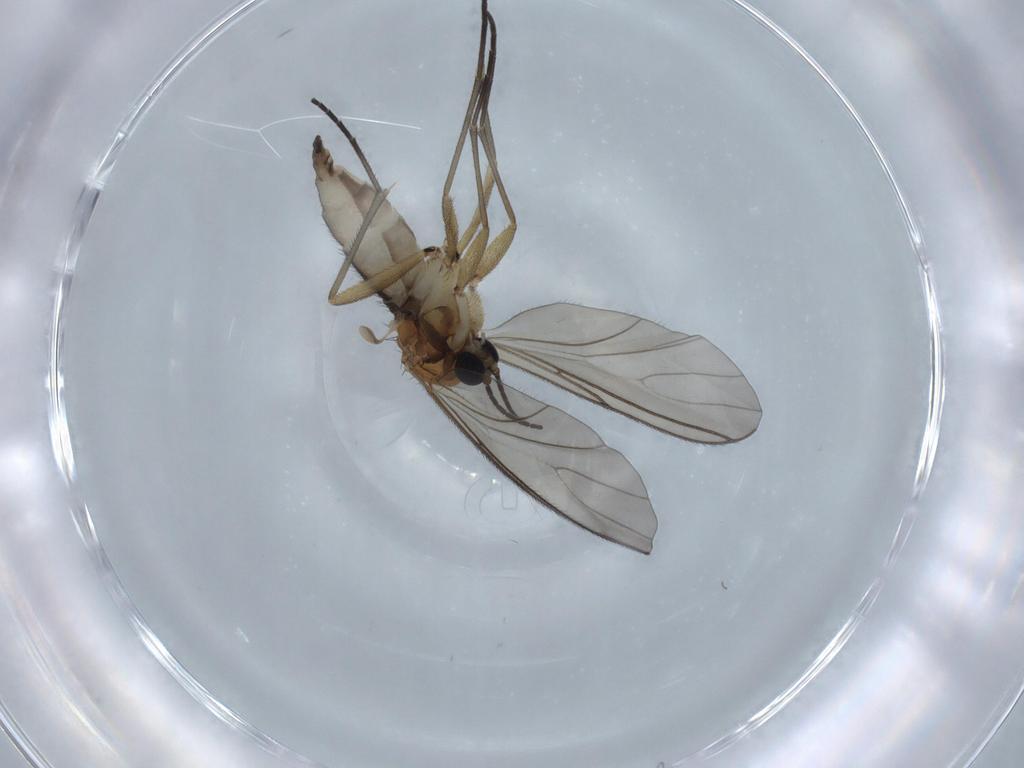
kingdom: Animalia
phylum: Arthropoda
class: Insecta
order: Diptera
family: Sciaridae
